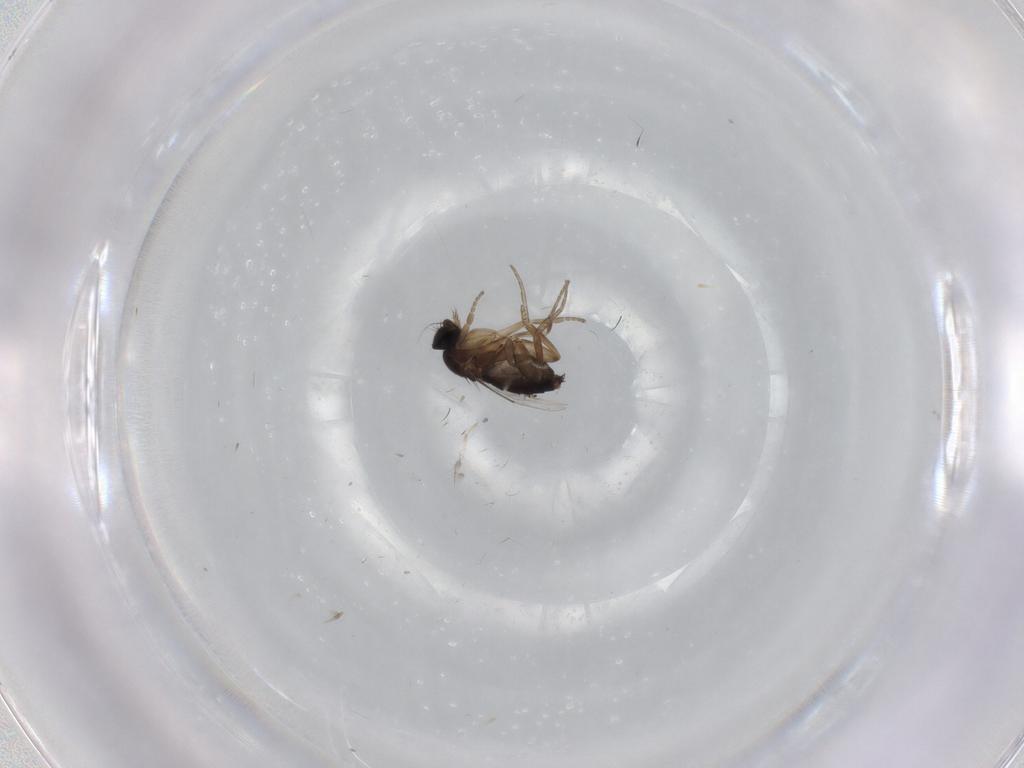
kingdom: Animalia
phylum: Arthropoda
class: Insecta
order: Diptera
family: Phoridae
